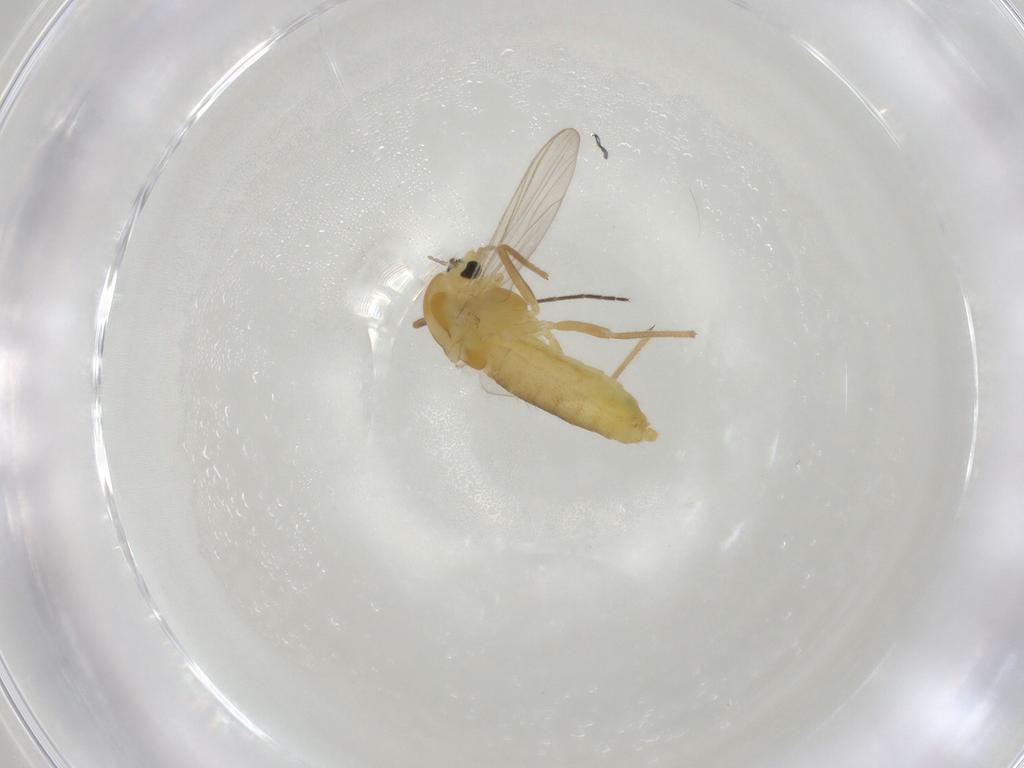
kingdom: Animalia
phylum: Arthropoda
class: Insecta
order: Diptera
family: Chironomidae
